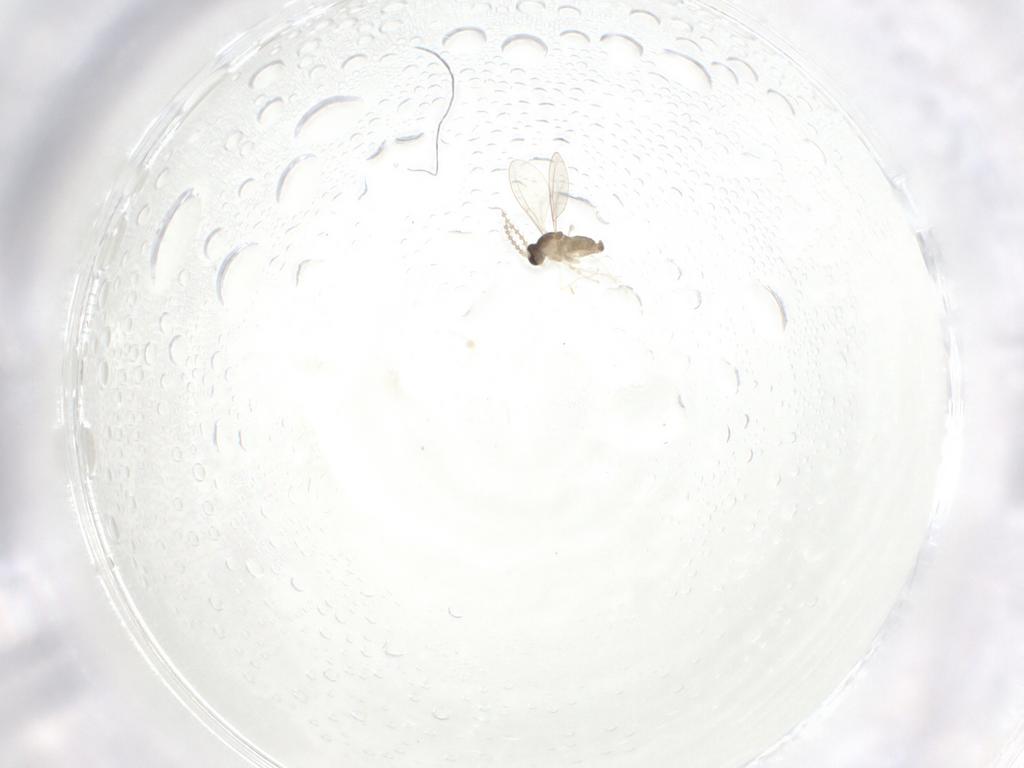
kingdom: Animalia
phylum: Arthropoda
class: Insecta
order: Diptera
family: Cecidomyiidae
